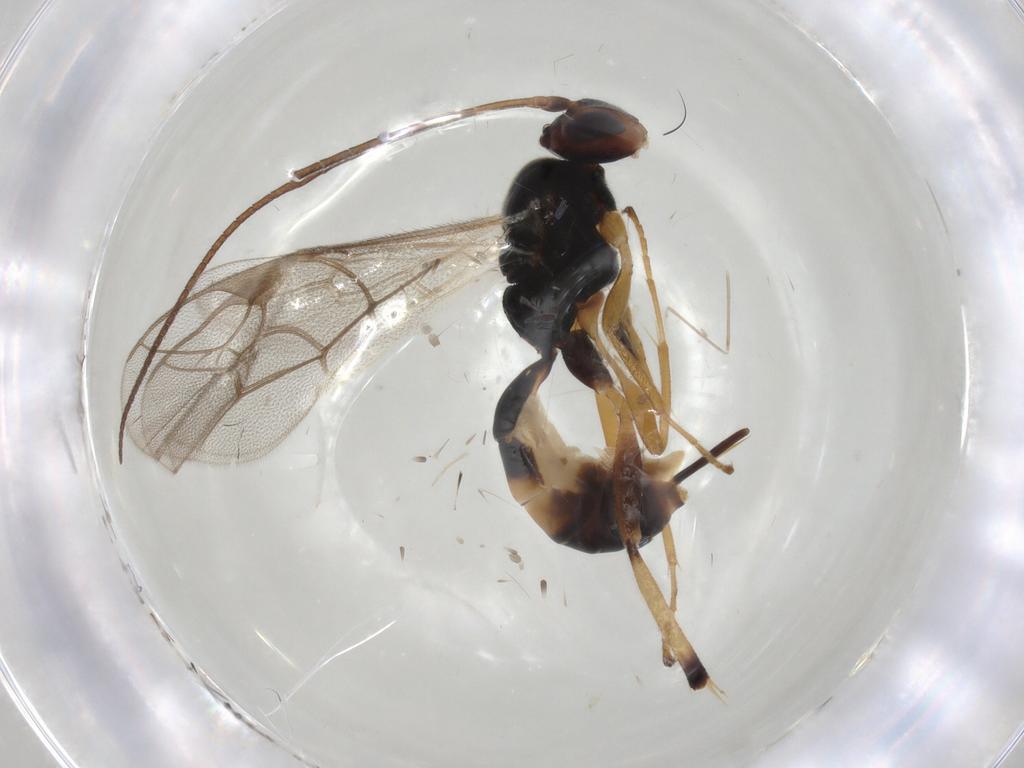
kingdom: Animalia
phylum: Arthropoda
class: Insecta
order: Hymenoptera
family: Ichneumonidae
